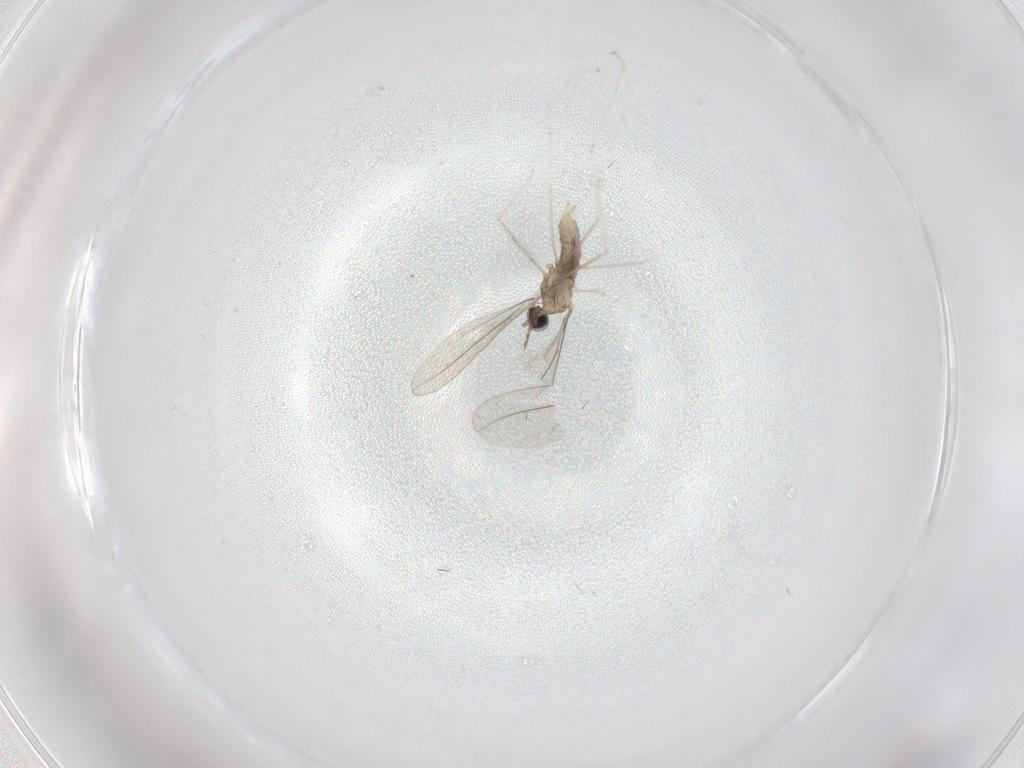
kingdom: Animalia
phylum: Arthropoda
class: Insecta
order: Diptera
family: Cecidomyiidae
